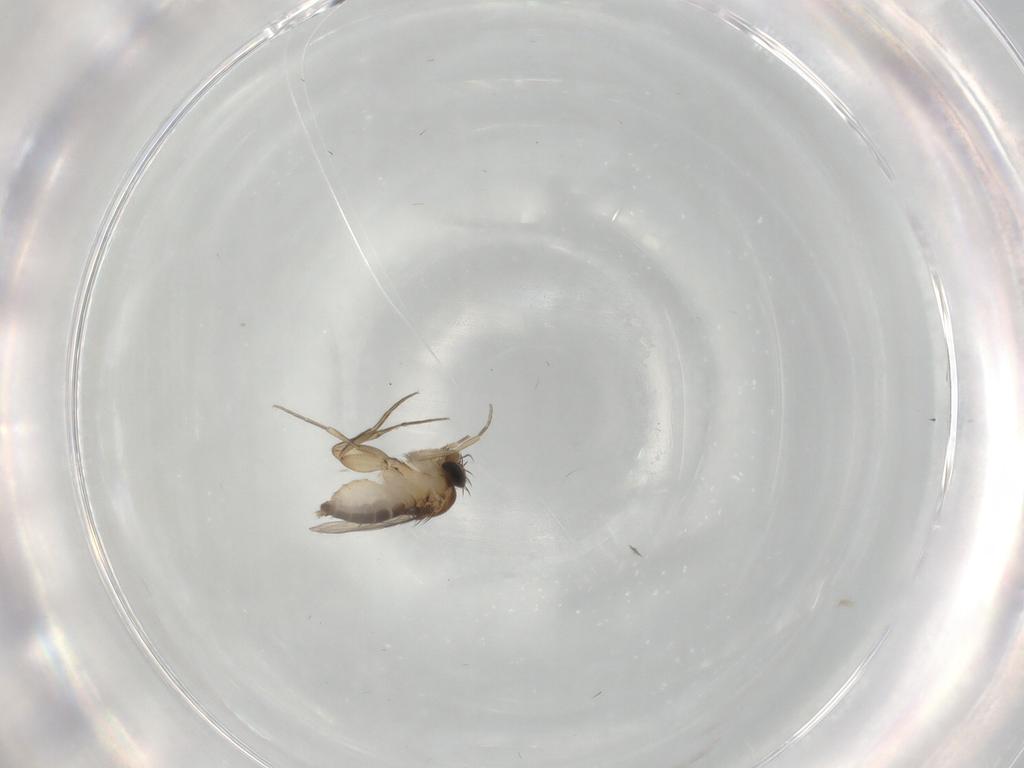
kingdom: Animalia
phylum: Arthropoda
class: Insecta
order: Diptera
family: Phoridae
